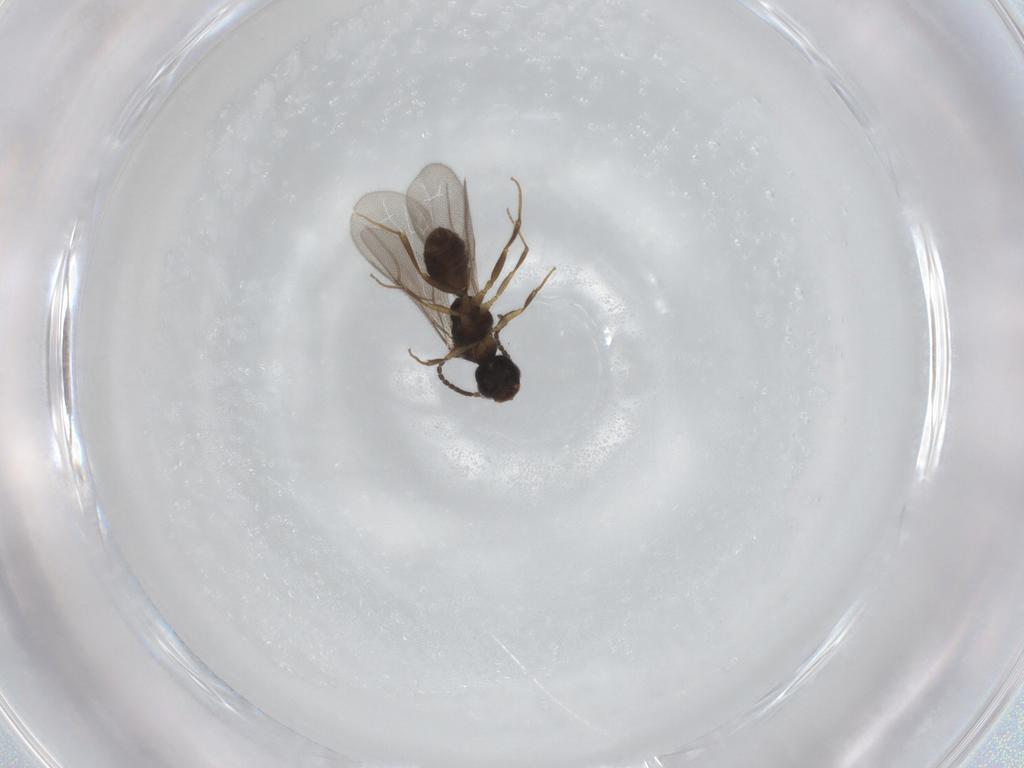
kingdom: Animalia
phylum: Arthropoda
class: Insecta
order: Hymenoptera
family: Bethylidae
